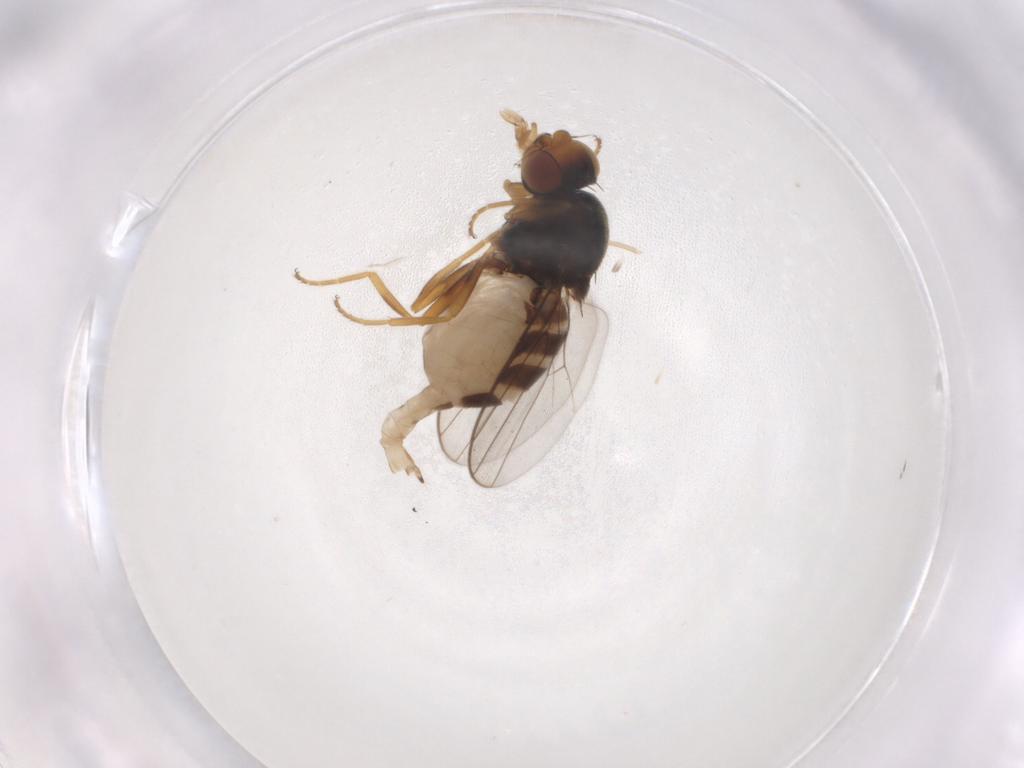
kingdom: Animalia
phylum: Arthropoda
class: Insecta
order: Diptera
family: Chloropidae
